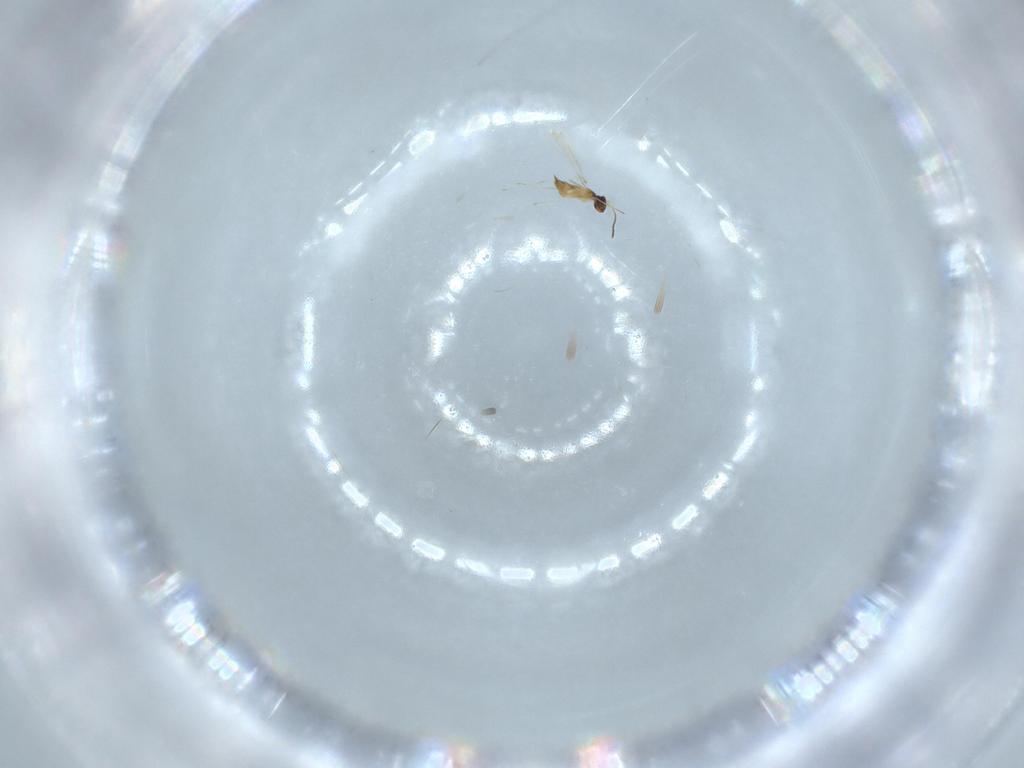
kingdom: Animalia
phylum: Arthropoda
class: Insecta
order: Hymenoptera
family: Mymaridae
